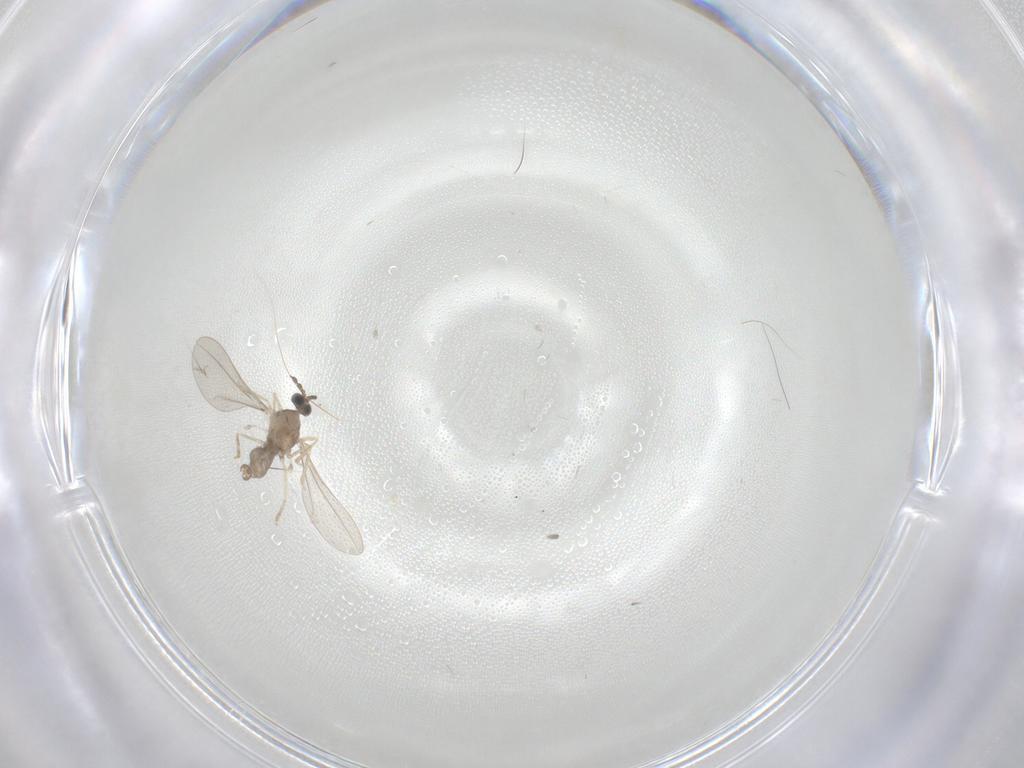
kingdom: Animalia
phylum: Arthropoda
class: Insecta
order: Diptera
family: Cecidomyiidae
